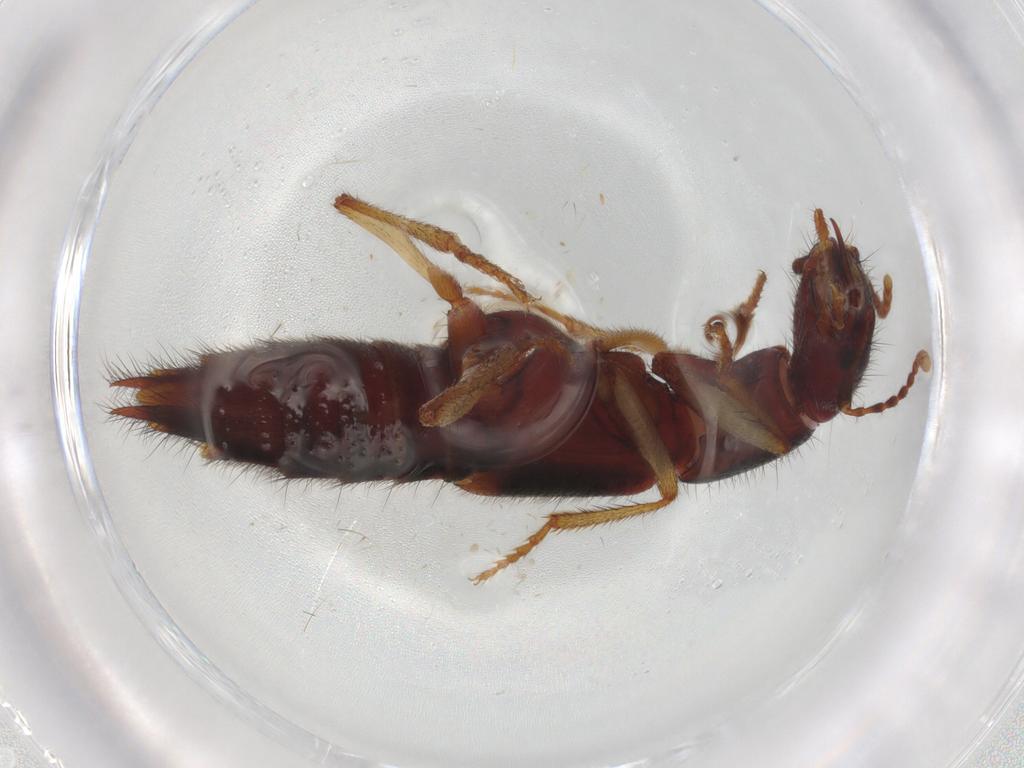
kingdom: Animalia
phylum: Arthropoda
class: Insecta
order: Coleoptera
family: Staphylinidae
